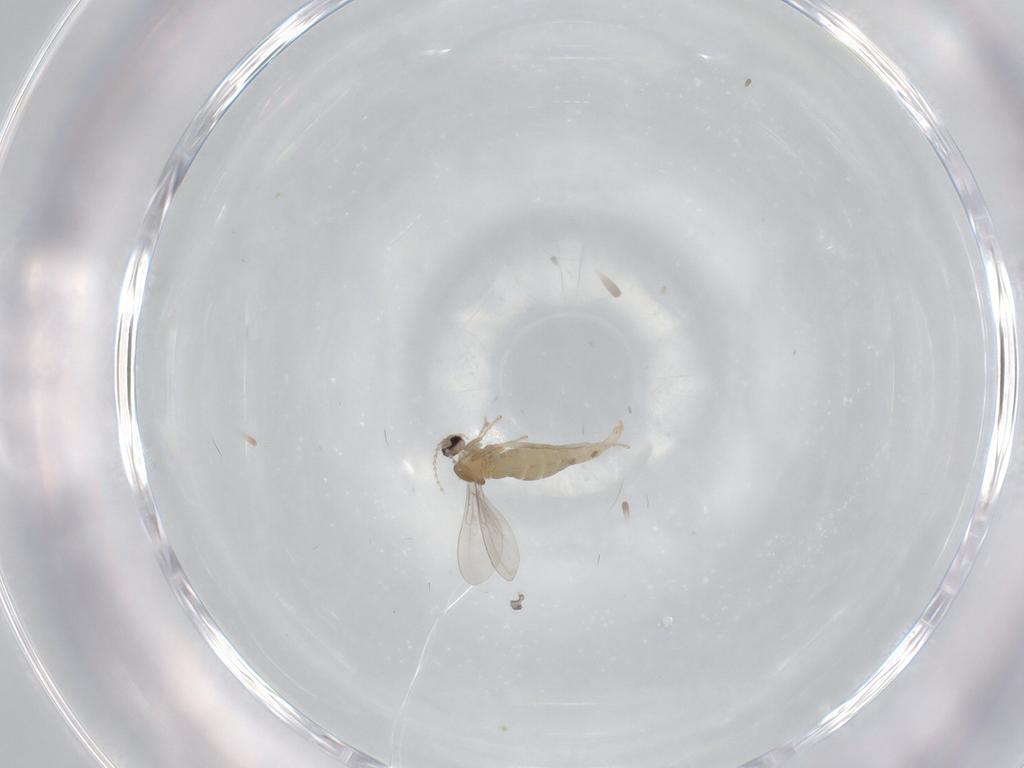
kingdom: Animalia
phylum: Arthropoda
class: Insecta
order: Diptera
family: Cecidomyiidae
